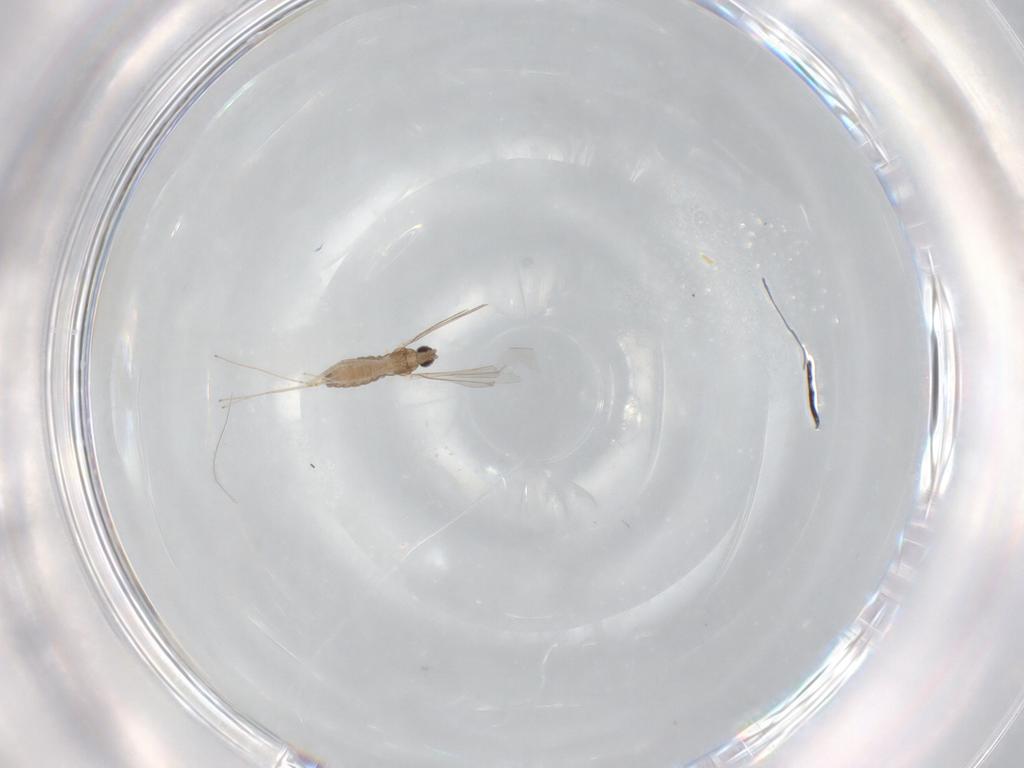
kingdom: Animalia
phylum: Arthropoda
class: Insecta
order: Diptera
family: Cecidomyiidae
